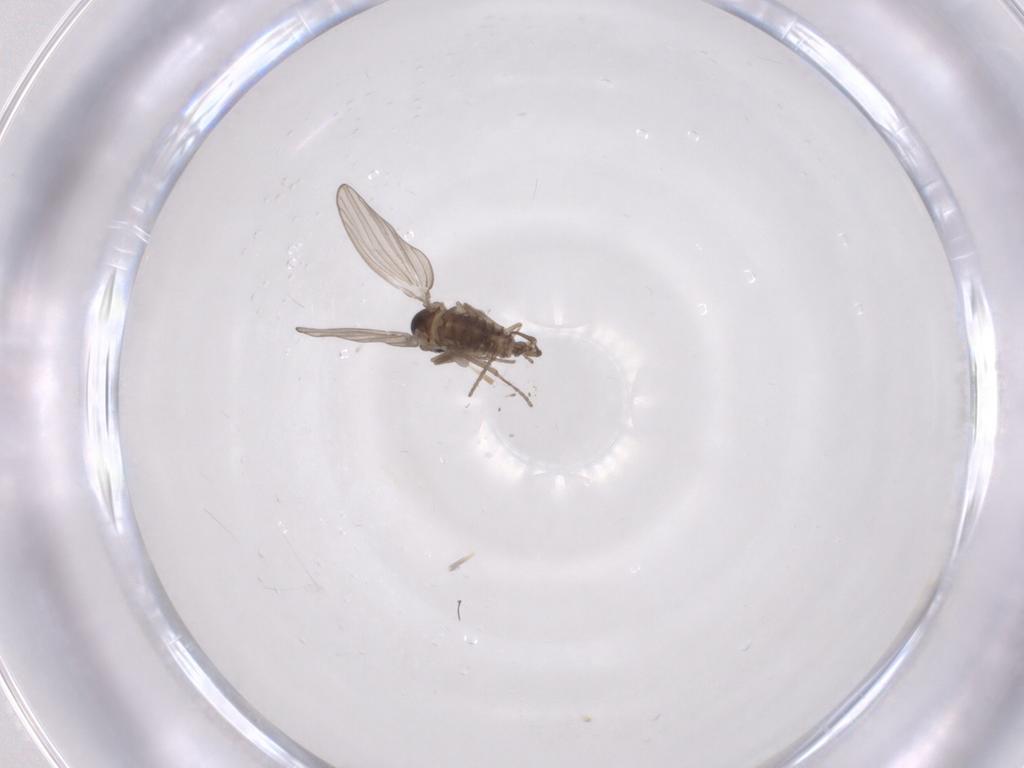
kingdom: Animalia
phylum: Arthropoda
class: Insecta
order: Diptera
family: Psychodidae
